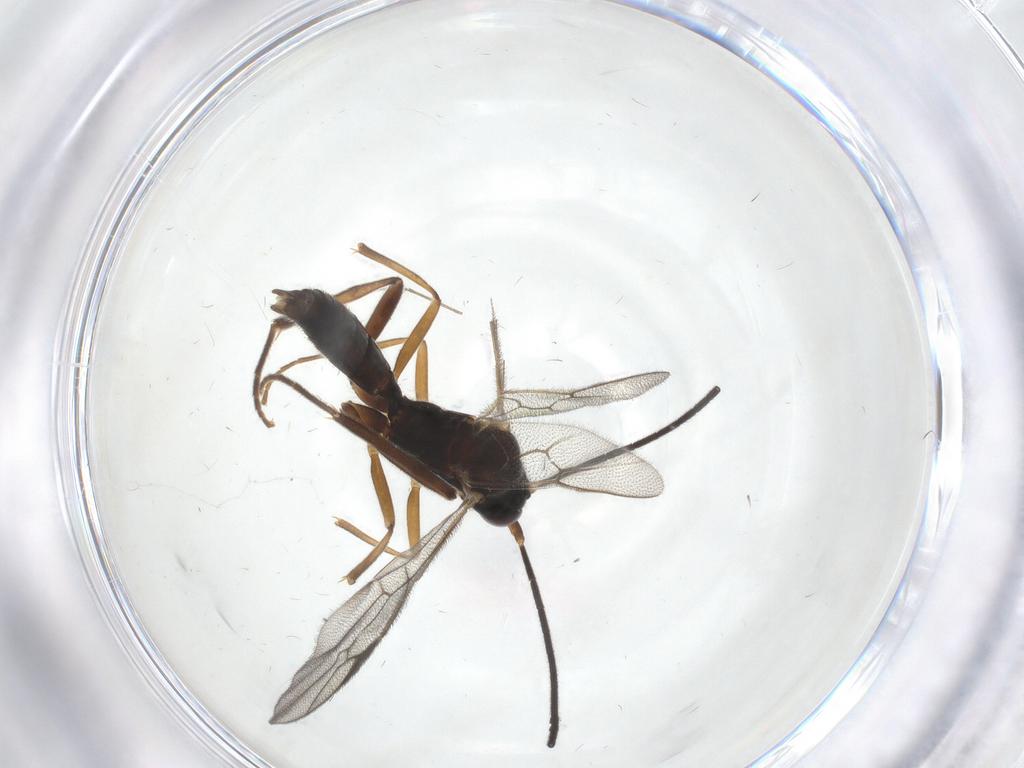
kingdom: Animalia
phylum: Arthropoda
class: Insecta
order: Hymenoptera
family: Ichneumonidae
